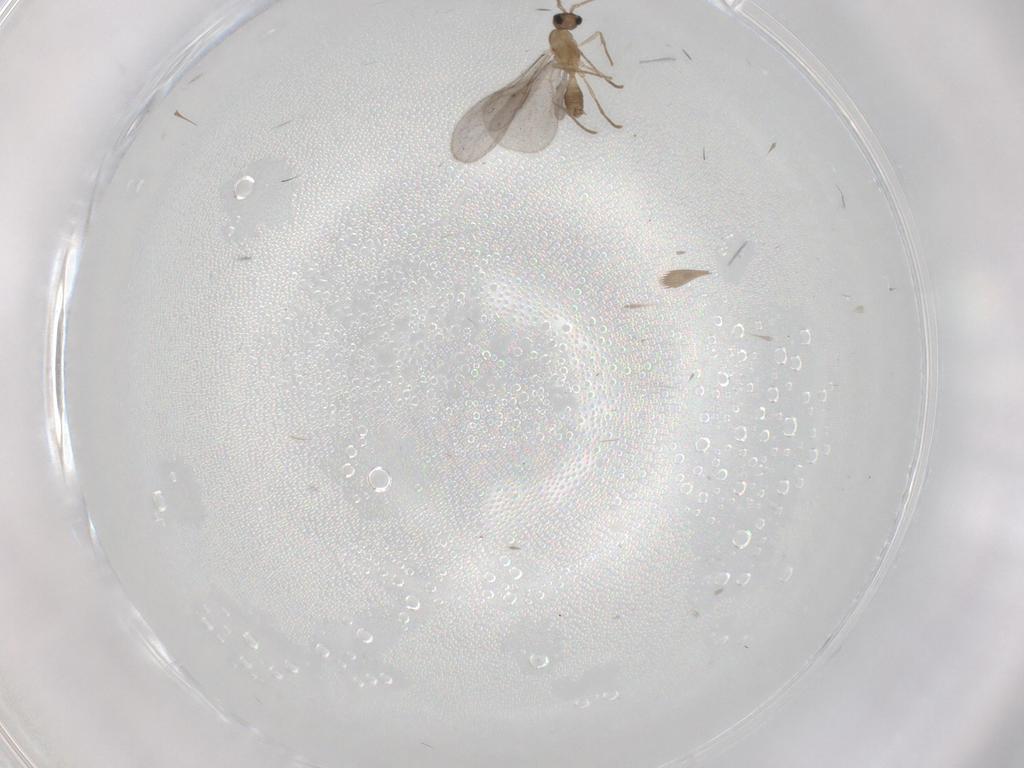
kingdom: Animalia
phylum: Arthropoda
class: Insecta
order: Hymenoptera
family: Formicidae
